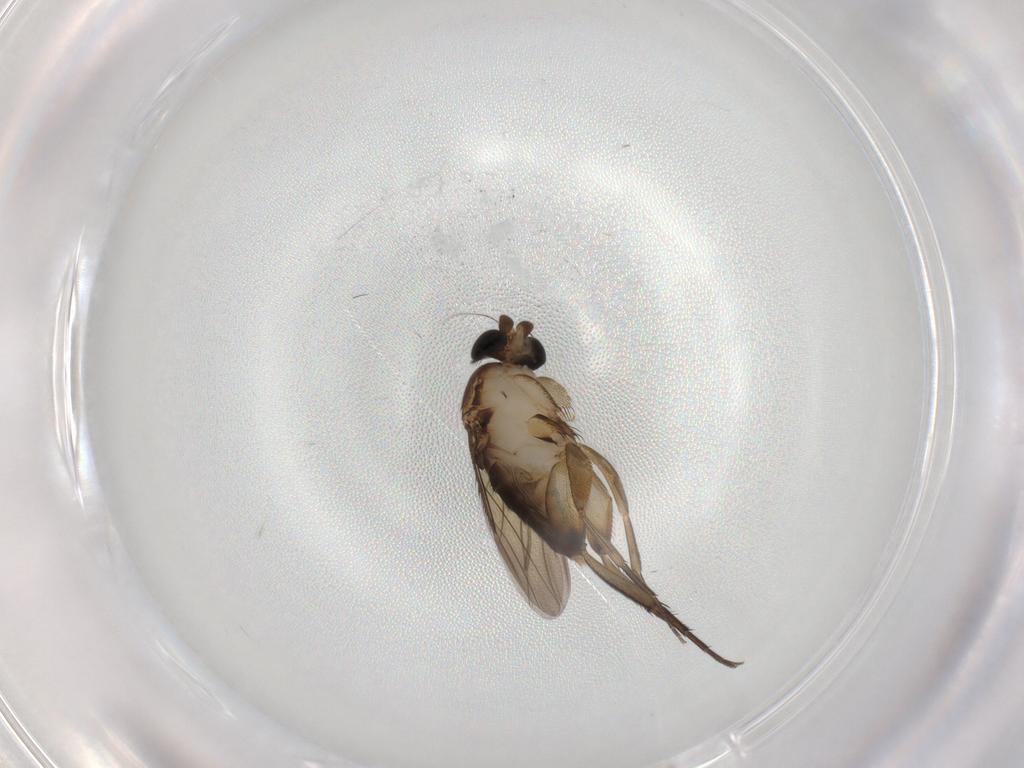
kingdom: Animalia
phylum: Arthropoda
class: Insecta
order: Diptera
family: Phoridae
